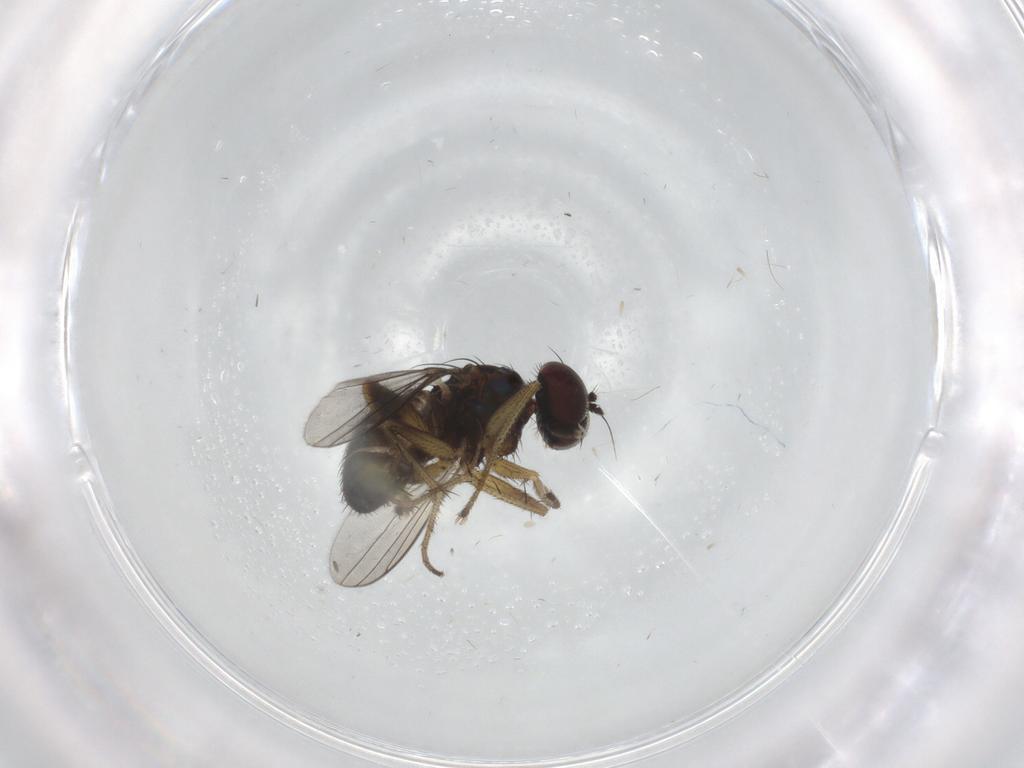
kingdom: Animalia
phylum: Arthropoda
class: Insecta
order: Diptera
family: Dolichopodidae
